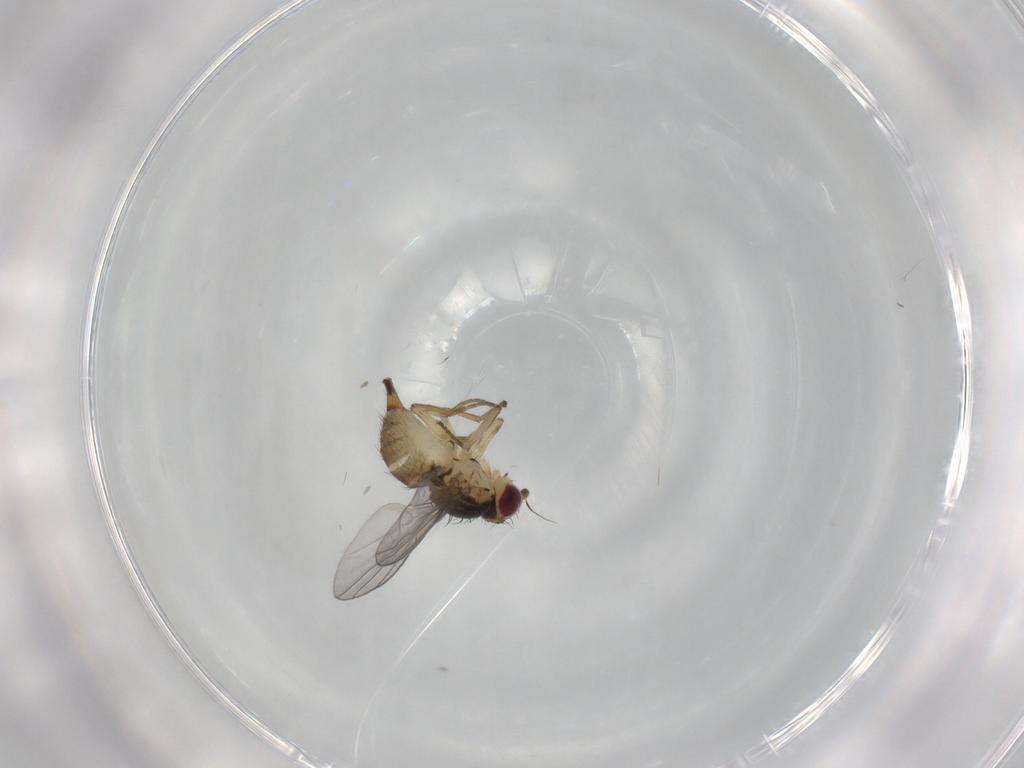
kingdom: Animalia
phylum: Arthropoda
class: Insecta
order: Diptera
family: Agromyzidae
